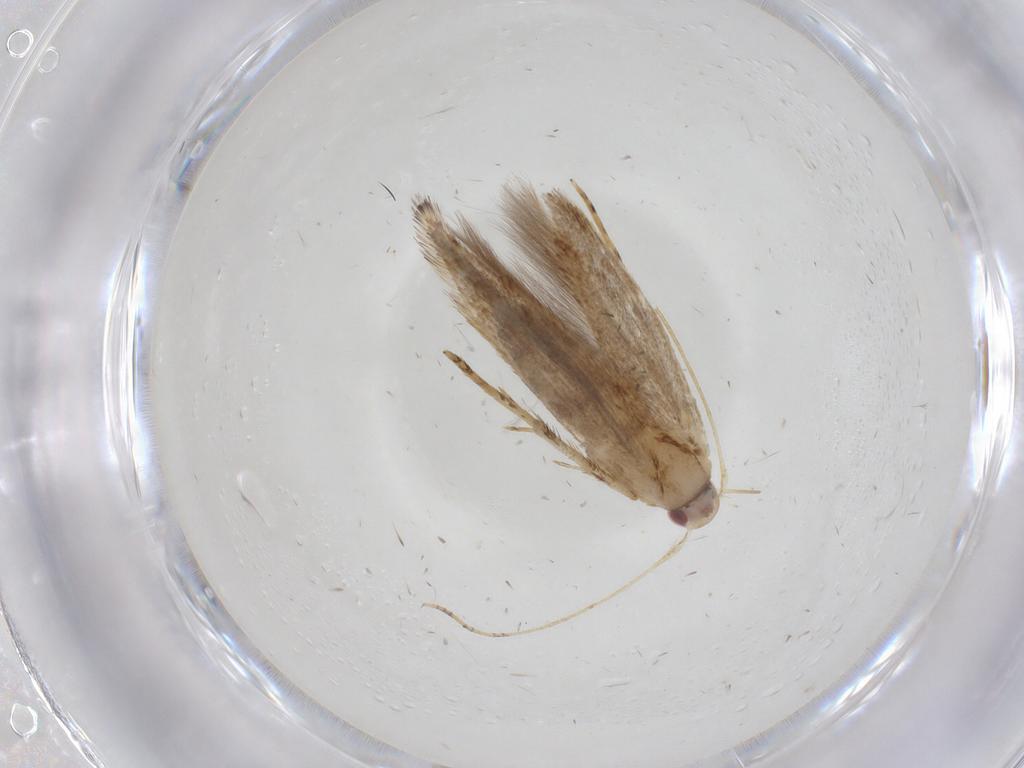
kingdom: Animalia
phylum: Arthropoda
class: Insecta
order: Lepidoptera
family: Cosmopterigidae
